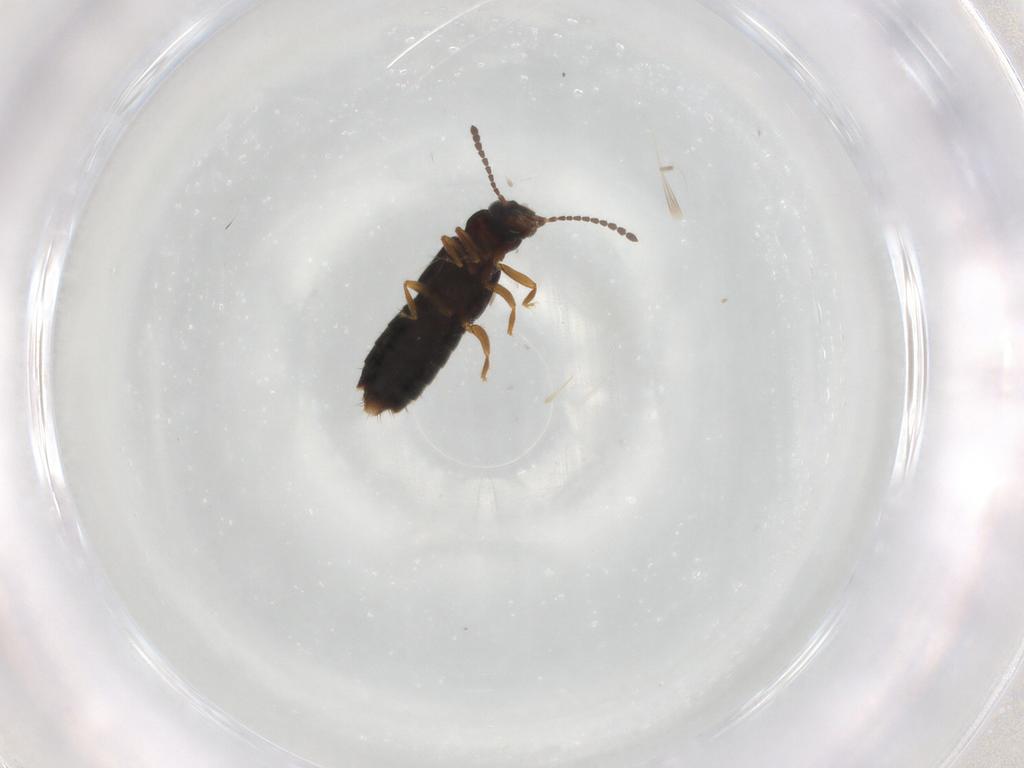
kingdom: Animalia
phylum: Arthropoda
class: Insecta
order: Coleoptera
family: Staphylinidae
